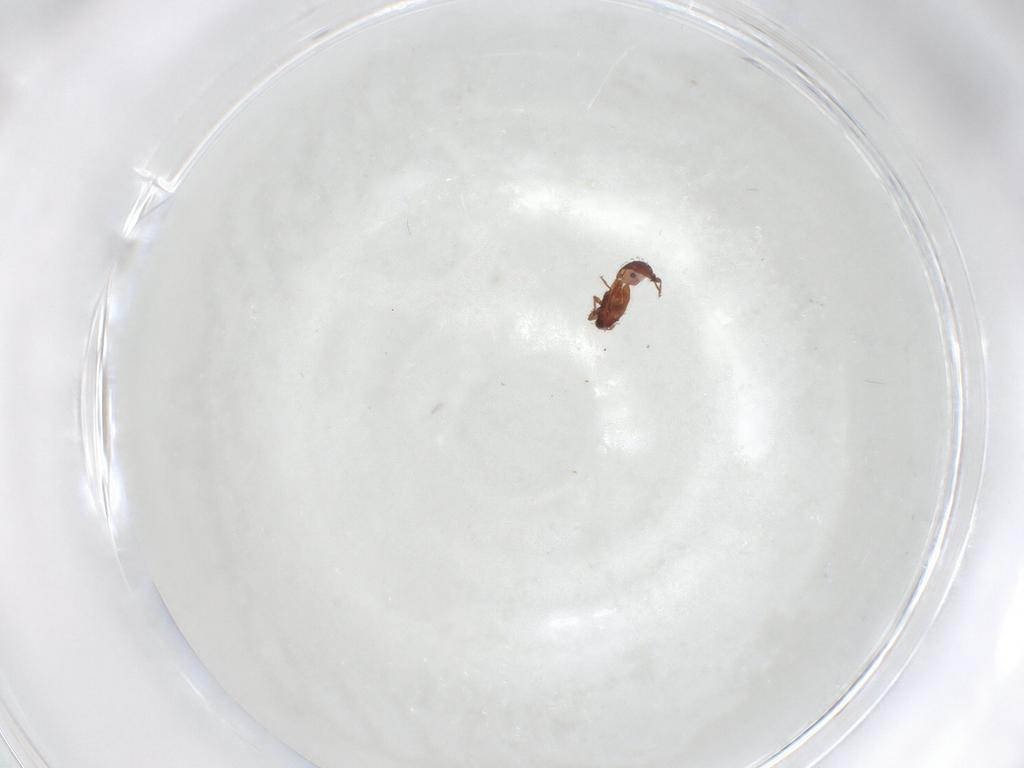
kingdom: Animalia
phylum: Arthropoda
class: Arachnida
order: Sarcoptiformes
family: Scheloribatidae
